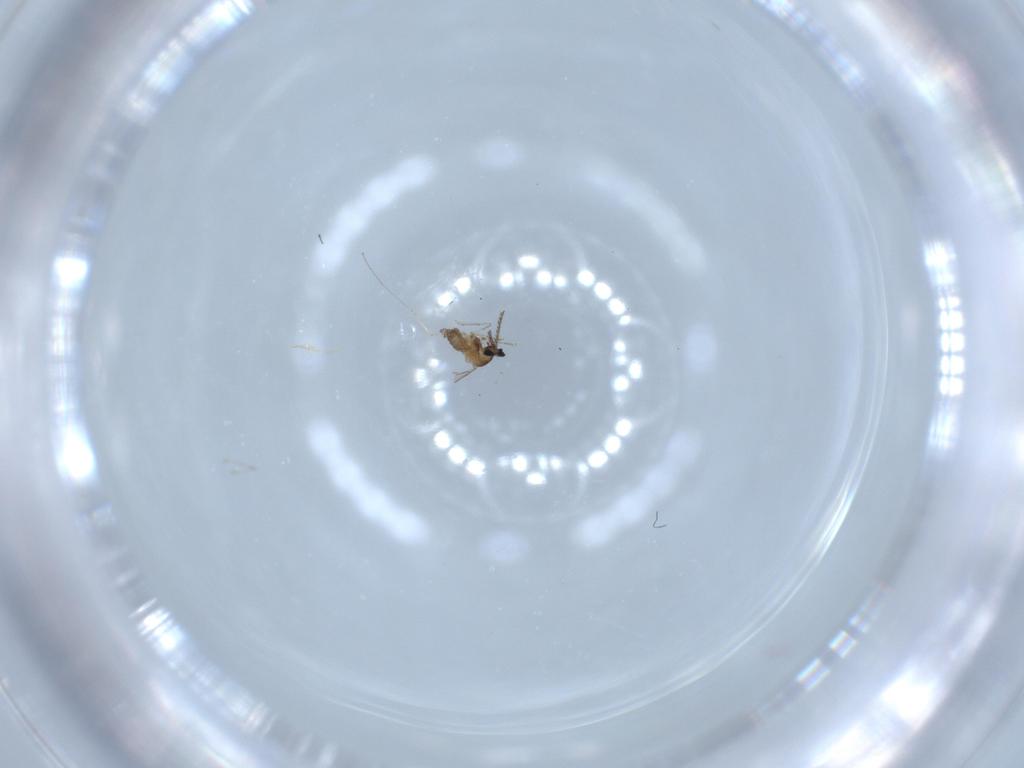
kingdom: Animalia
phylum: Arthropoda
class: Insecta
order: Diptera
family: Cecidomyiidae
